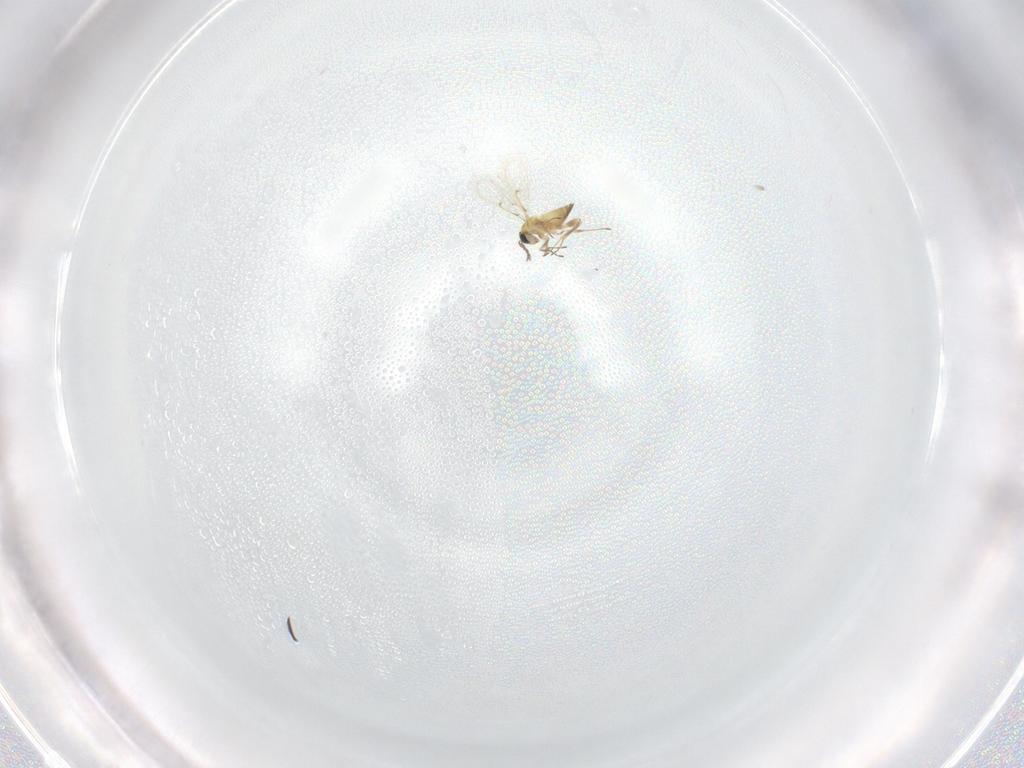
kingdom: Animalia
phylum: Arthropoda
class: Insecta
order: Hymenoptera
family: Trichogrammatidae
